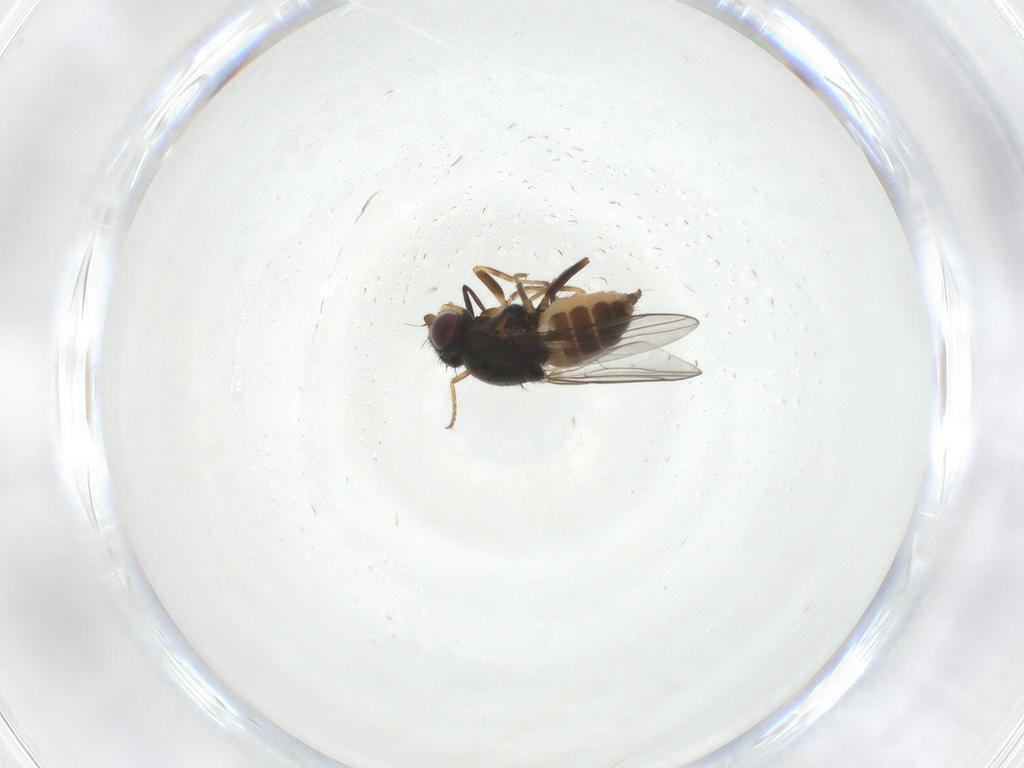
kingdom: Animalia
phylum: Arthropoda
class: Insecta
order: Diptera
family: Chloropidae
